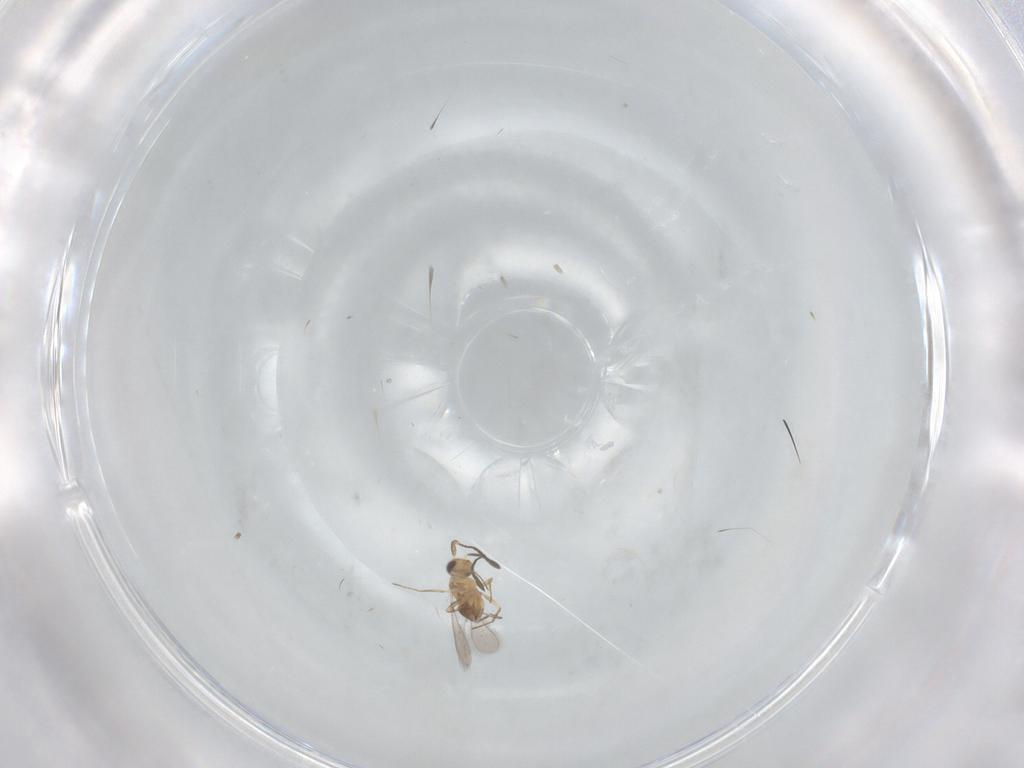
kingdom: Animalia
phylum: Arthropoda
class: Insecta
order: Hymenoptera
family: Mymaridae
